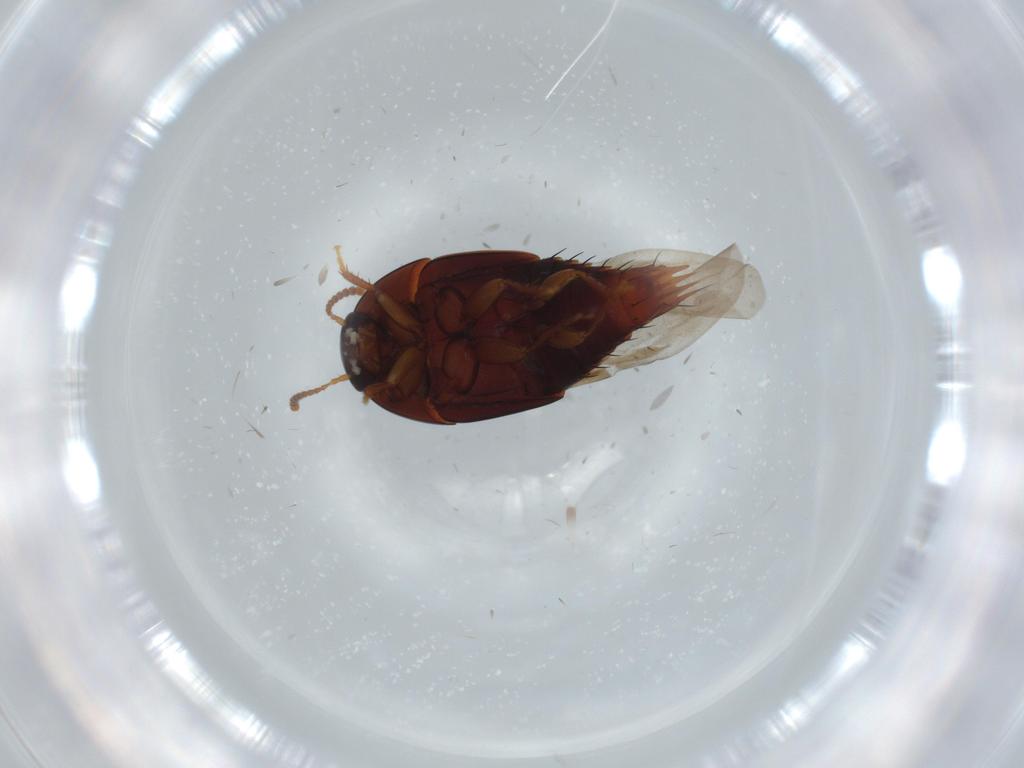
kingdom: Animalia
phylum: Arthropoda
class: Insecta
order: Coleoptera
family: Staphylinidae
